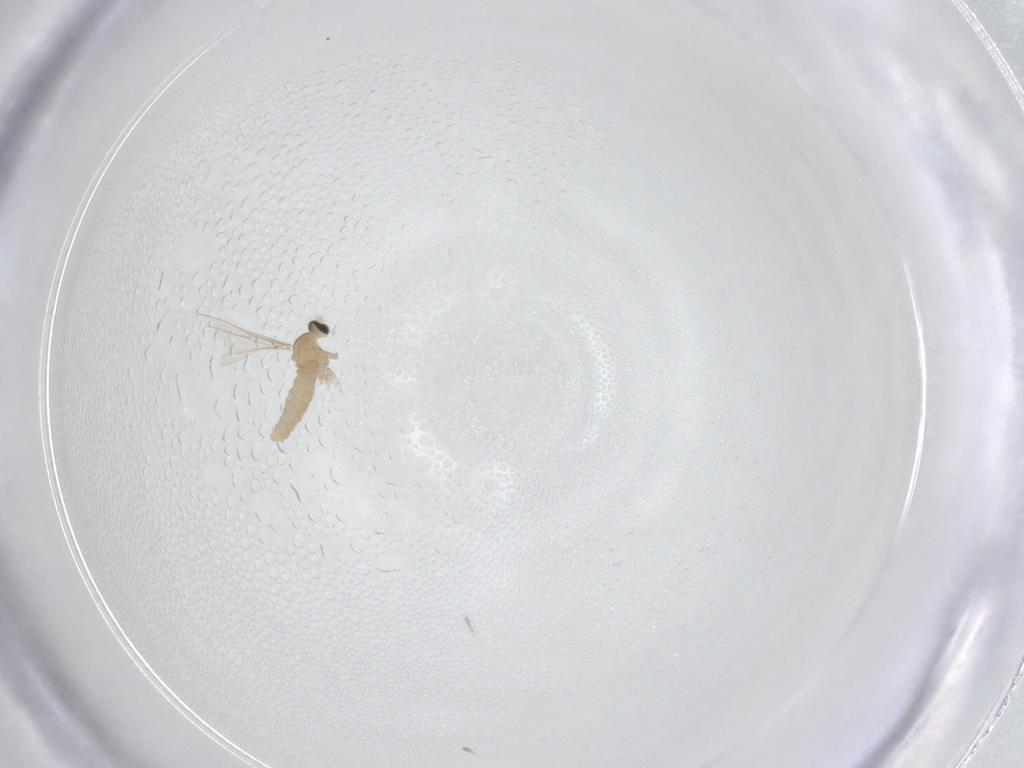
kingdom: Animalia
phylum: Arthropoda
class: Insecta
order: Diptera
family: Cecidomyiidae
